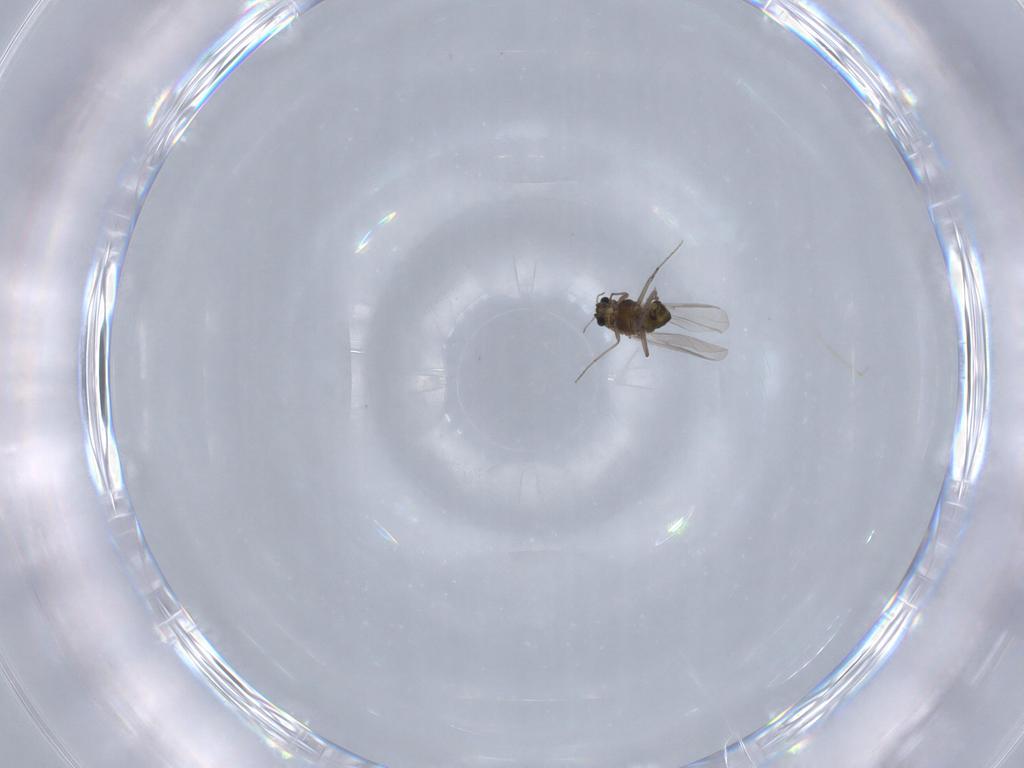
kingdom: Animalia
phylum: Arthropoda
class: Insecta
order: Diptera
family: Chironomidae
